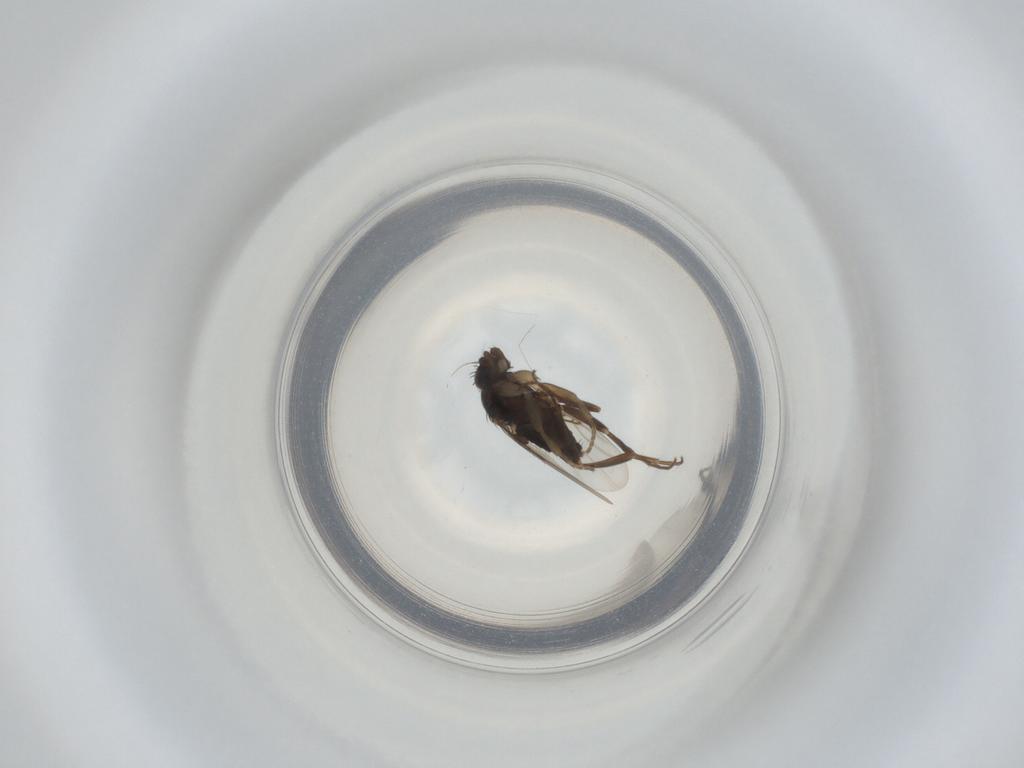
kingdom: Animalia
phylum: Arthropoda
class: Insecta
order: Diptera
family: Phoridae
